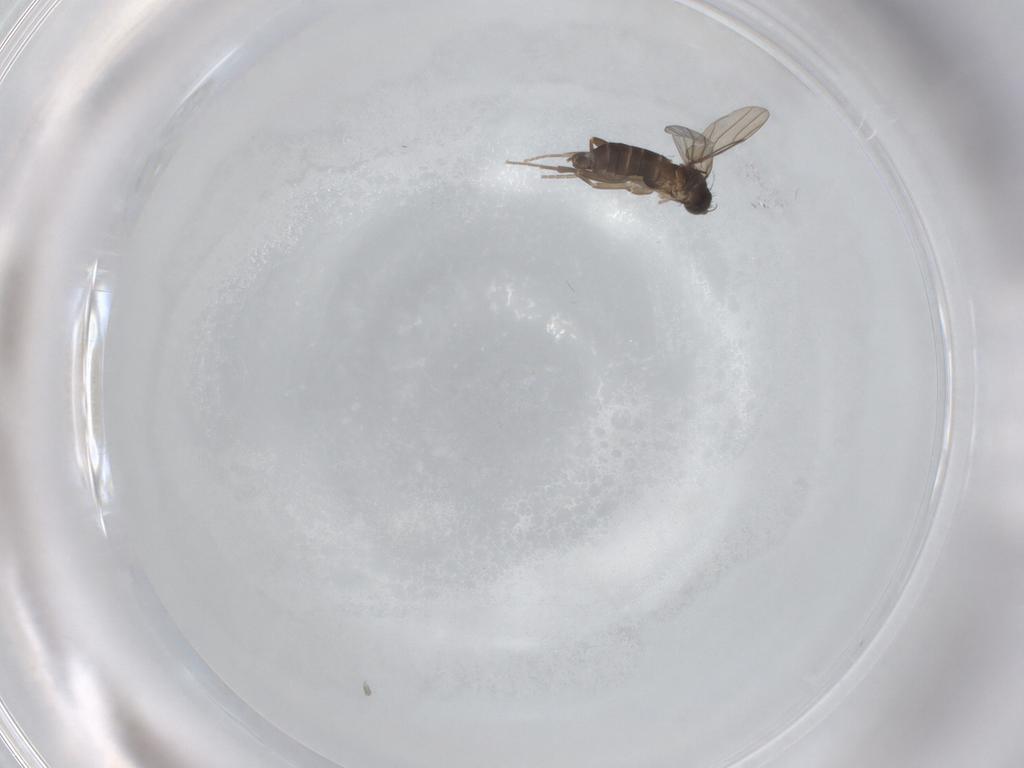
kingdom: Animalia
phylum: Arthropoda
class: Insecta
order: Diptera
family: Phoridae
